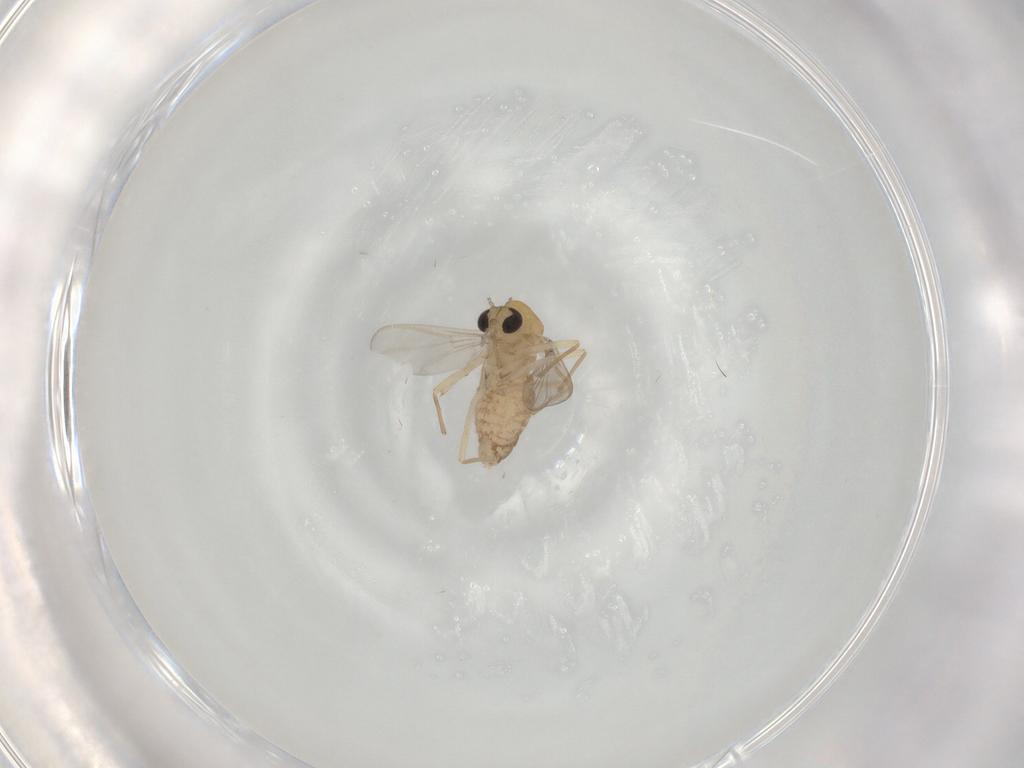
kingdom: Animalia
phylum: Arthropoda
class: Insecta
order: Diptera
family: Chironomidae
